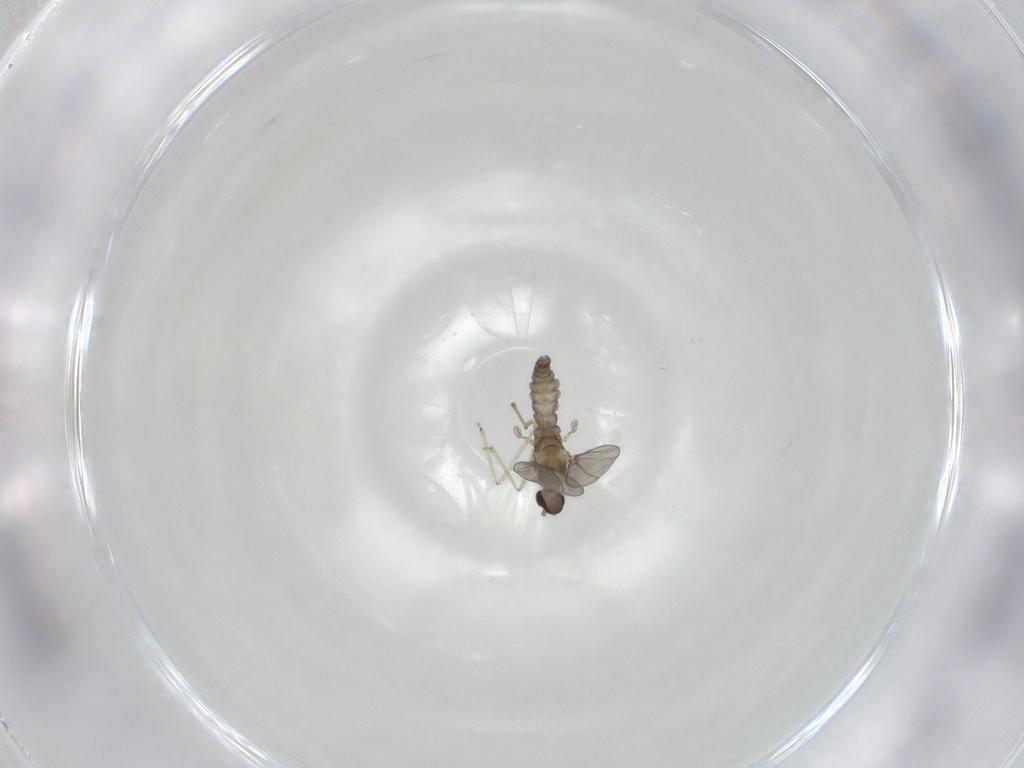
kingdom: Animalia
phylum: Arthropoda
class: Insecta
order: Diptera
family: Cecidomyiidae
